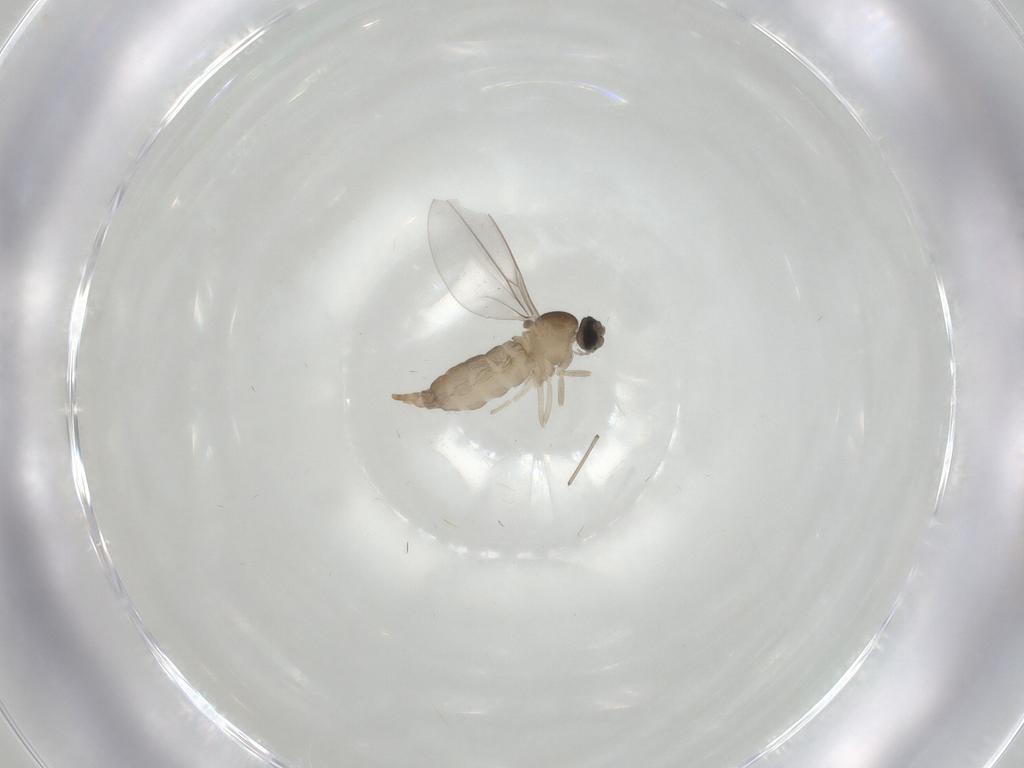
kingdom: Animalia
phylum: Arthropoda
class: Insecta
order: Diptera
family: Cecidomyiidae
